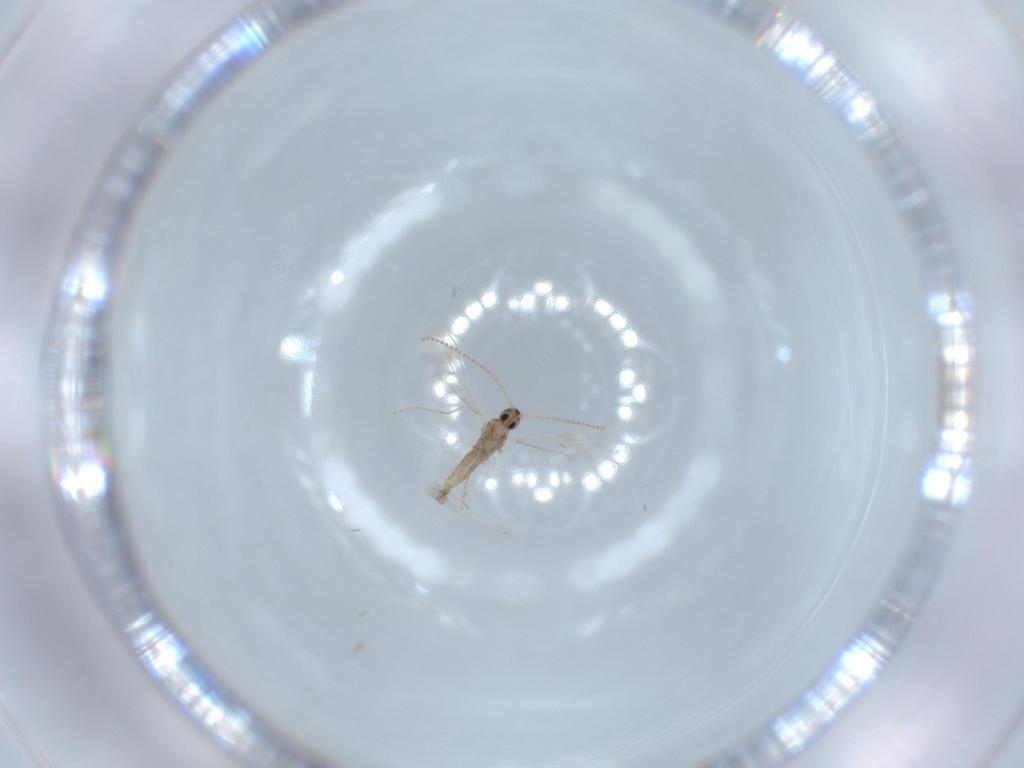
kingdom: Animalia
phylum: Arthropoda
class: Insecta
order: Diptera
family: Cecidomyiidae
